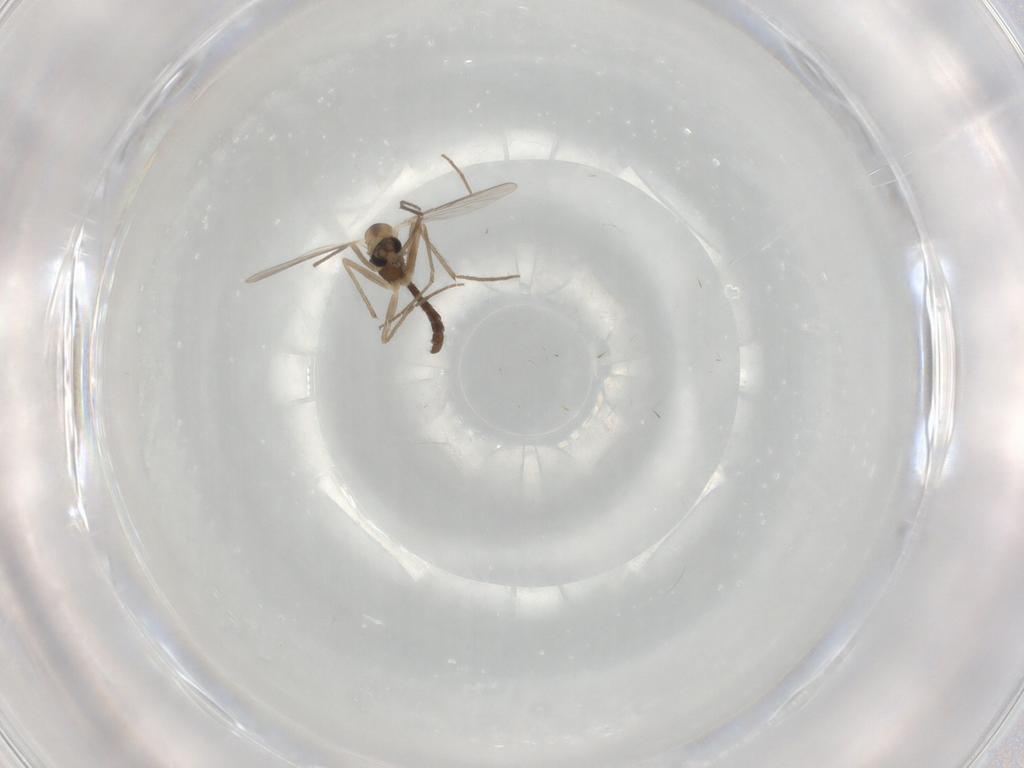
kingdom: Animalia
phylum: Arthropoda
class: Insecta
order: Diptera
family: Chironomidae
